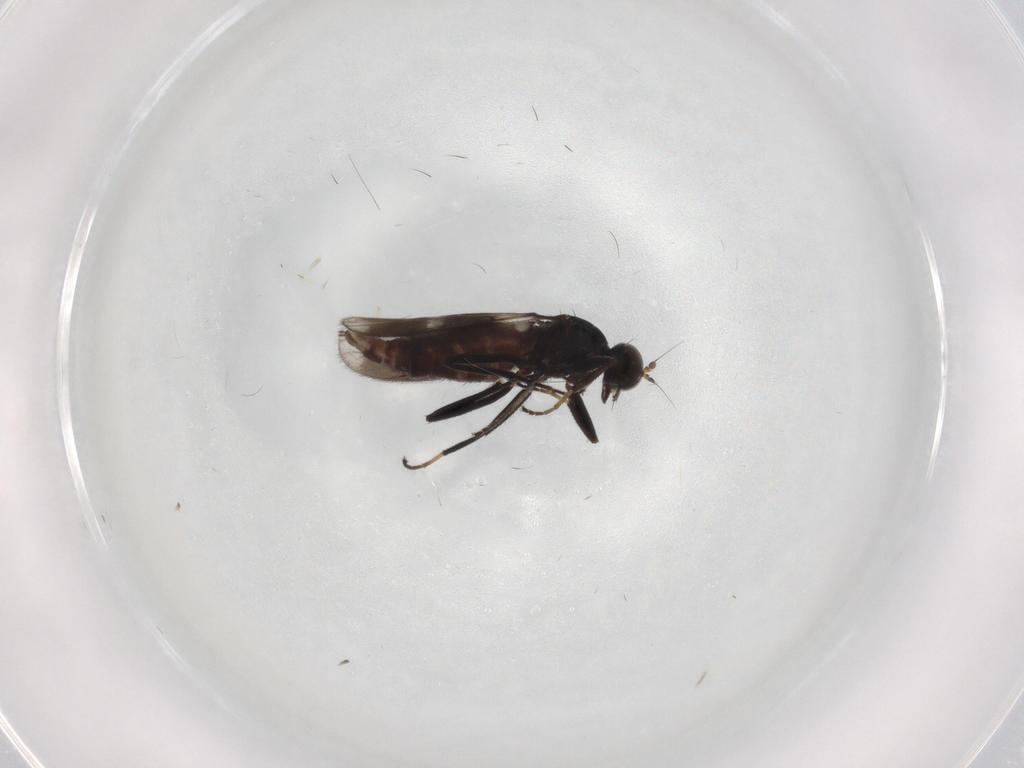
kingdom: Animalia
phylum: Arthropoda
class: Insecta
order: Diptera
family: Hybotidae
